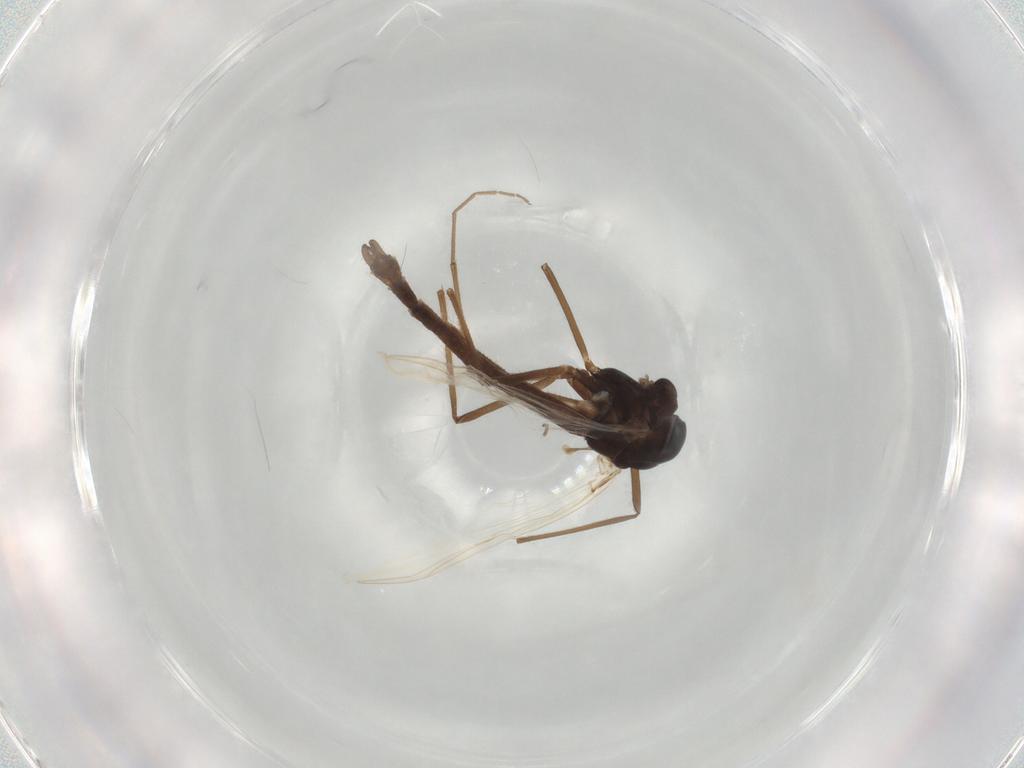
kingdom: Animalia
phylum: Arthropoda
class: Insecta
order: Diptera
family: Chironomidae
